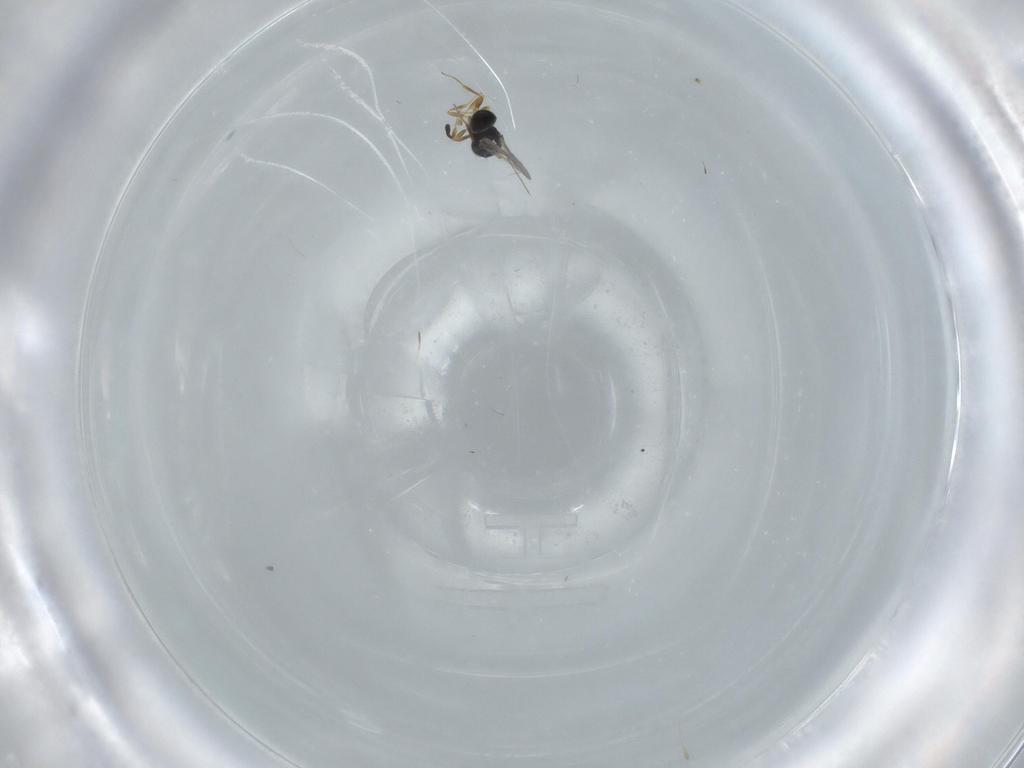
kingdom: Animalia
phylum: Arthropoda
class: Insecta
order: Hymenoptera
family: Scelionidae
